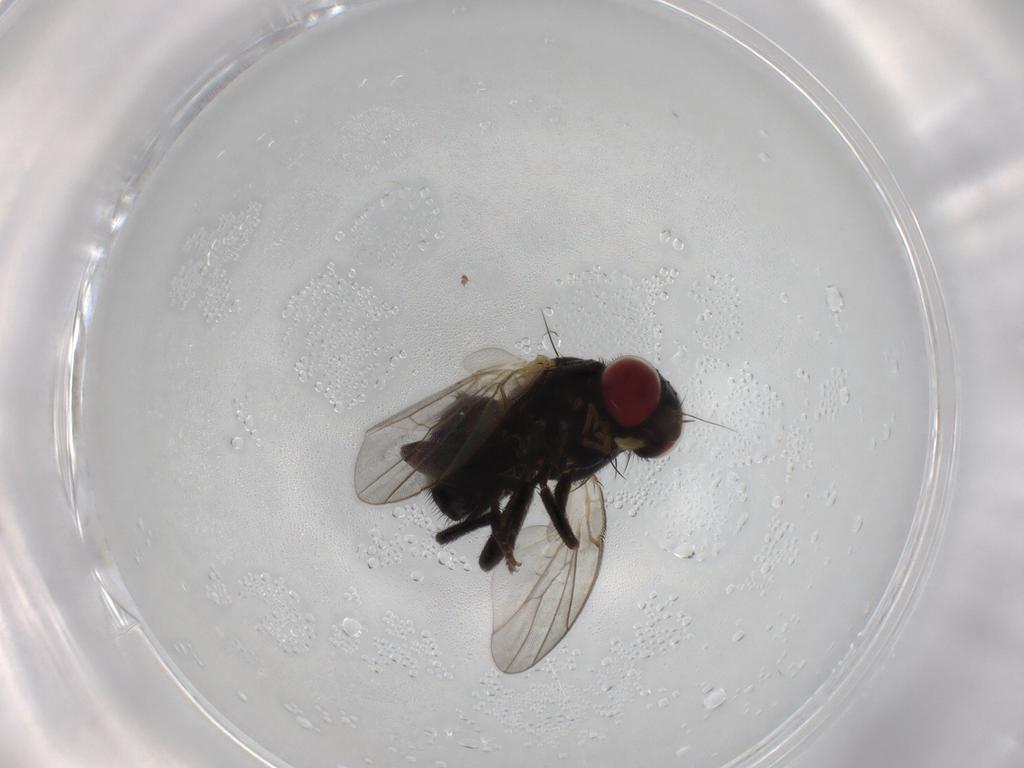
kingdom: Animalia
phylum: Arthropoda
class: Insecta
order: Diptera
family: Agromyzidae
